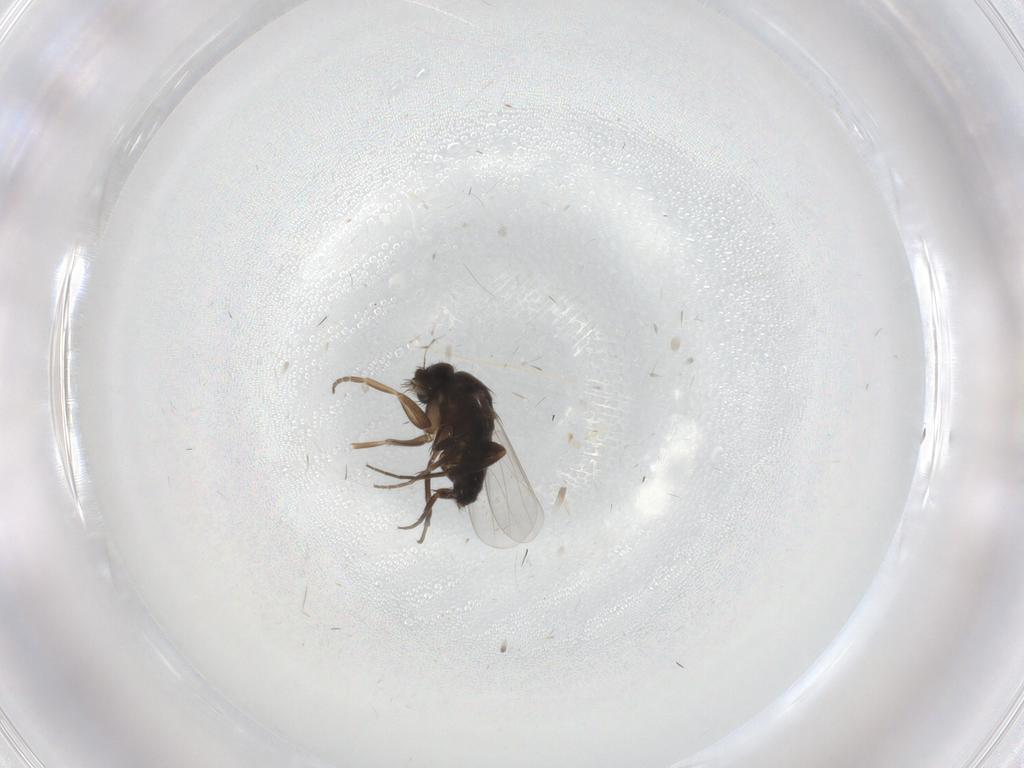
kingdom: Animalia
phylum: Arthropoda
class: Insecta
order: Diptera
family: Phoridae
